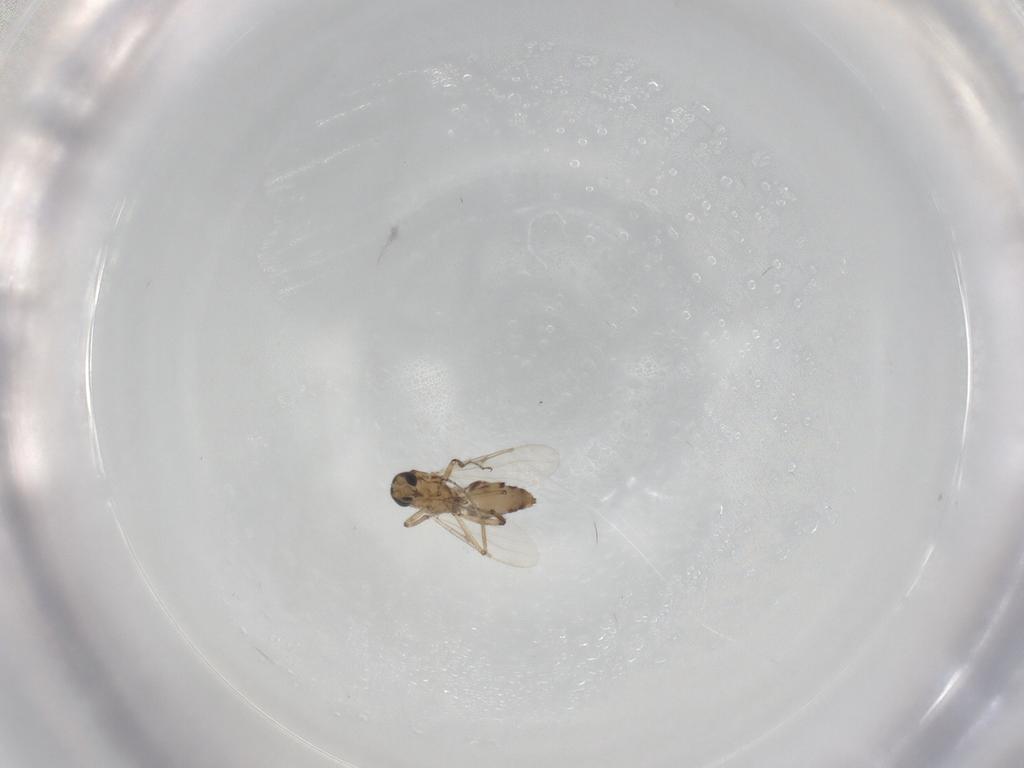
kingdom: Animalia
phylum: Arthropoda
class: Insecta
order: Diptera
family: Ceratopogonidae
